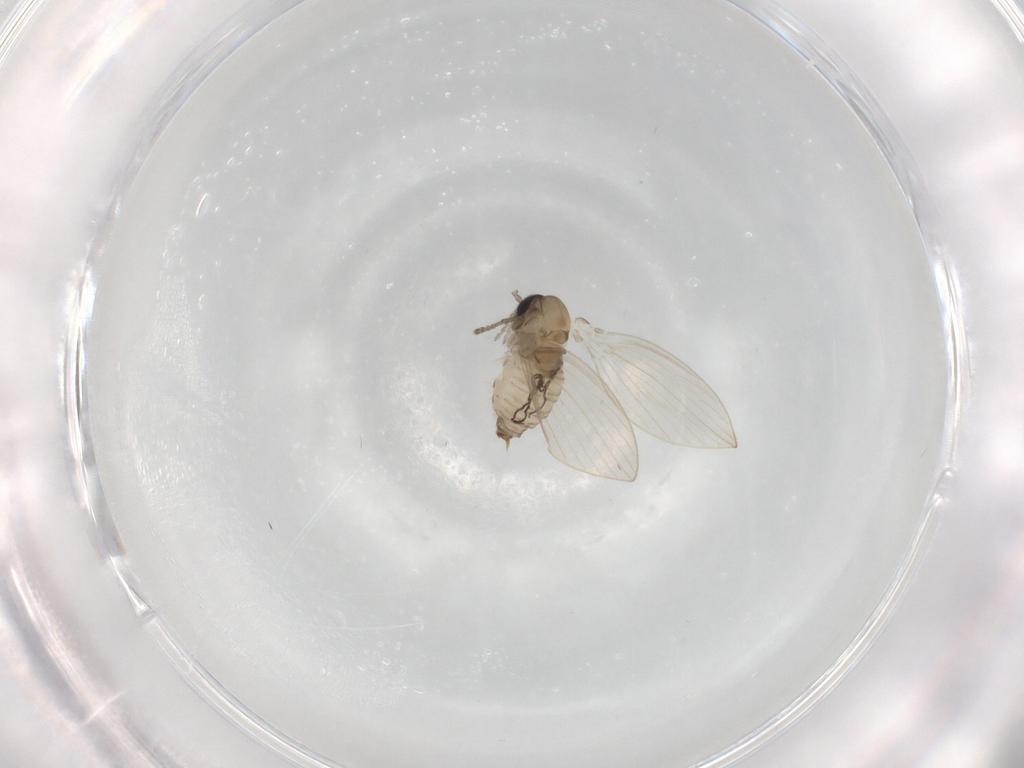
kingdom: Animalia
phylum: Arthropoda
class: Insecta
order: Diptera
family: Psychodidae
